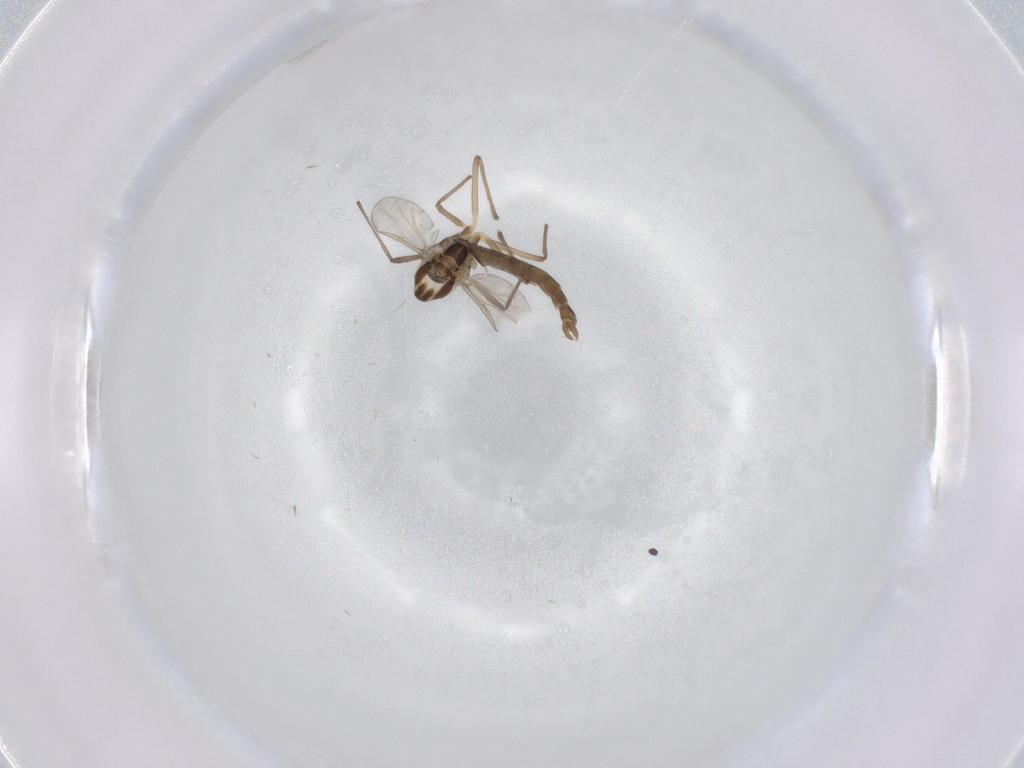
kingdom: Animalia
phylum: Arthropoda
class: Insecta
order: Diptera
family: Chironomidae
